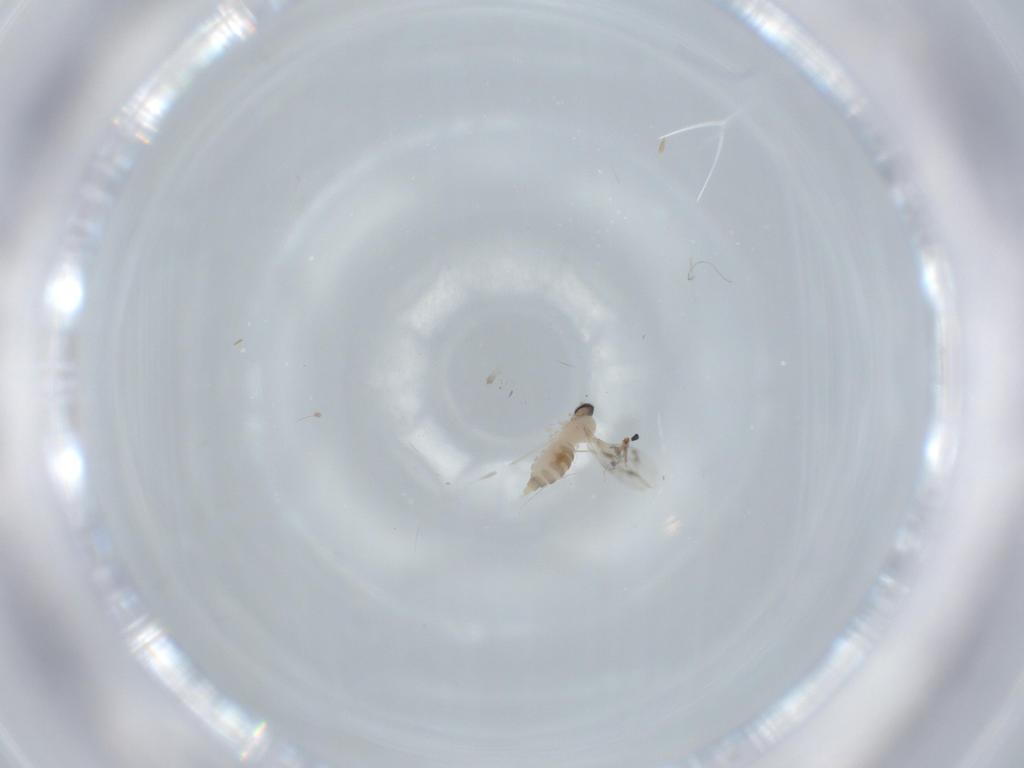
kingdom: Animalia
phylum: Arthropoda
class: Insecta
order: Diptera
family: Cecidomyiidae
